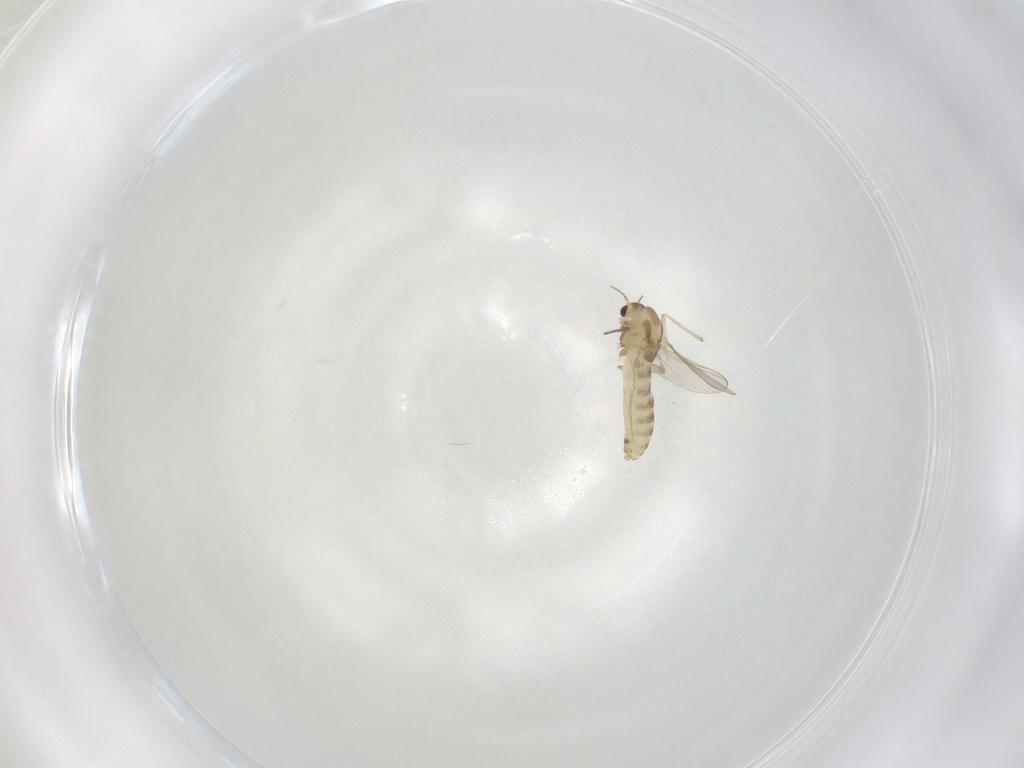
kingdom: Animalia
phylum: Arthropoda
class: Insecta
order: Diptera
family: Chironomidae
